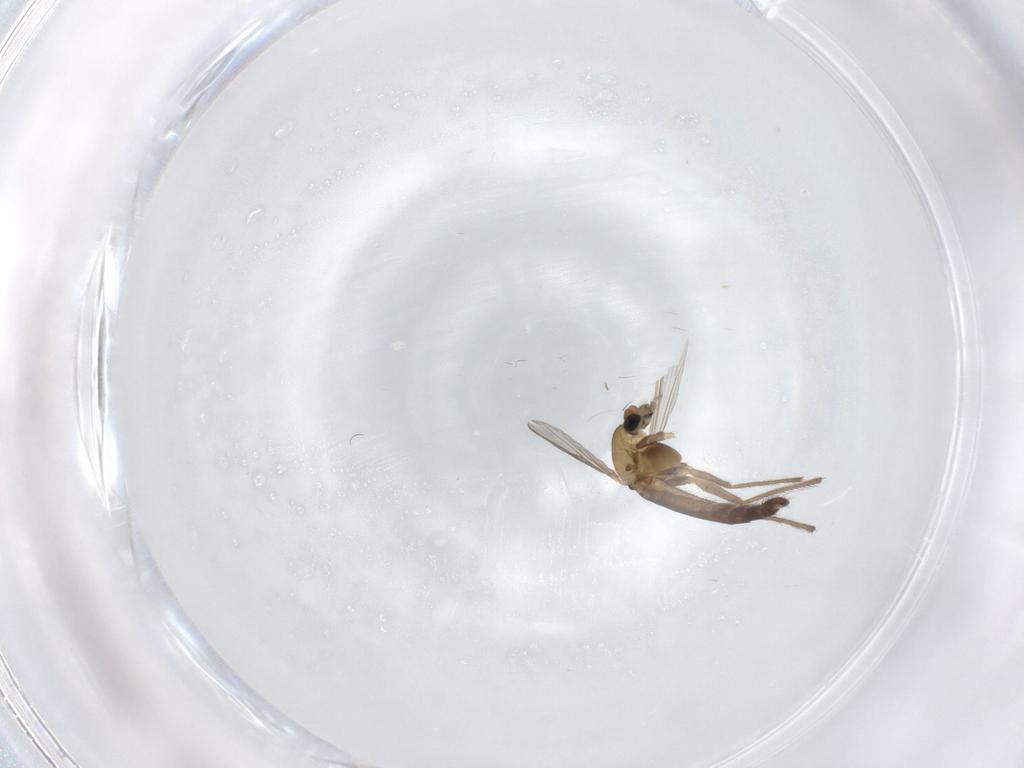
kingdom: Animalia
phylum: Arthropoda
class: Insecta
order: Diptera
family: Chironomidae
